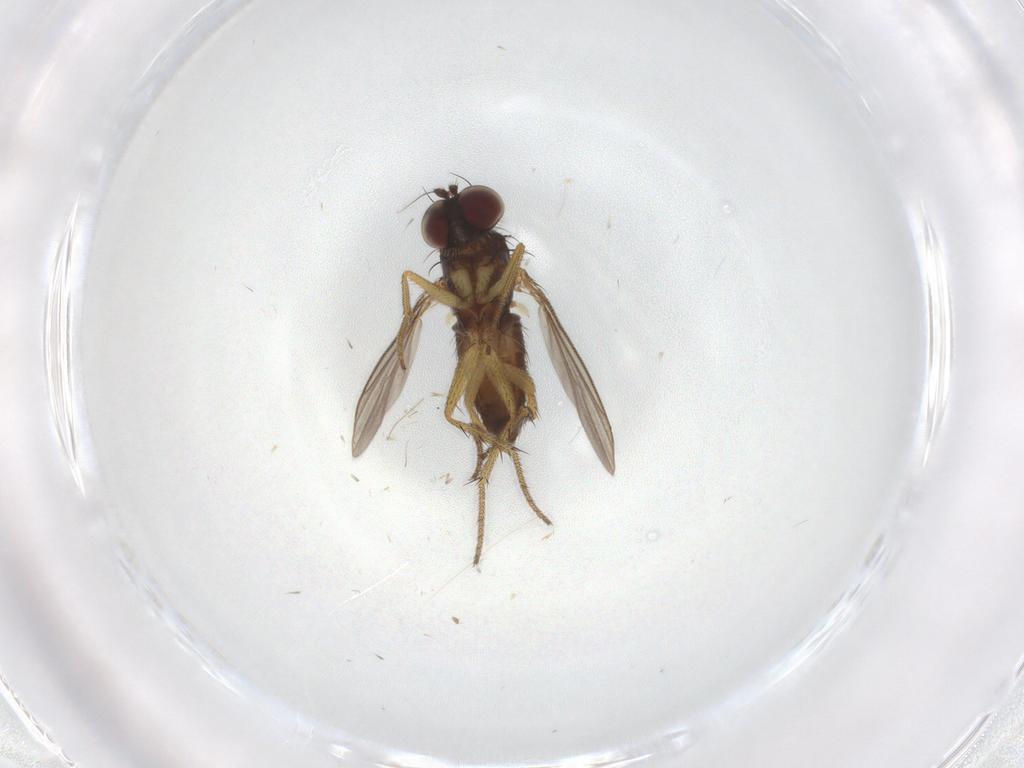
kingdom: Animalia
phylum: Arthropoda
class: Insecta
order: Diptera
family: Dolichopodidae
